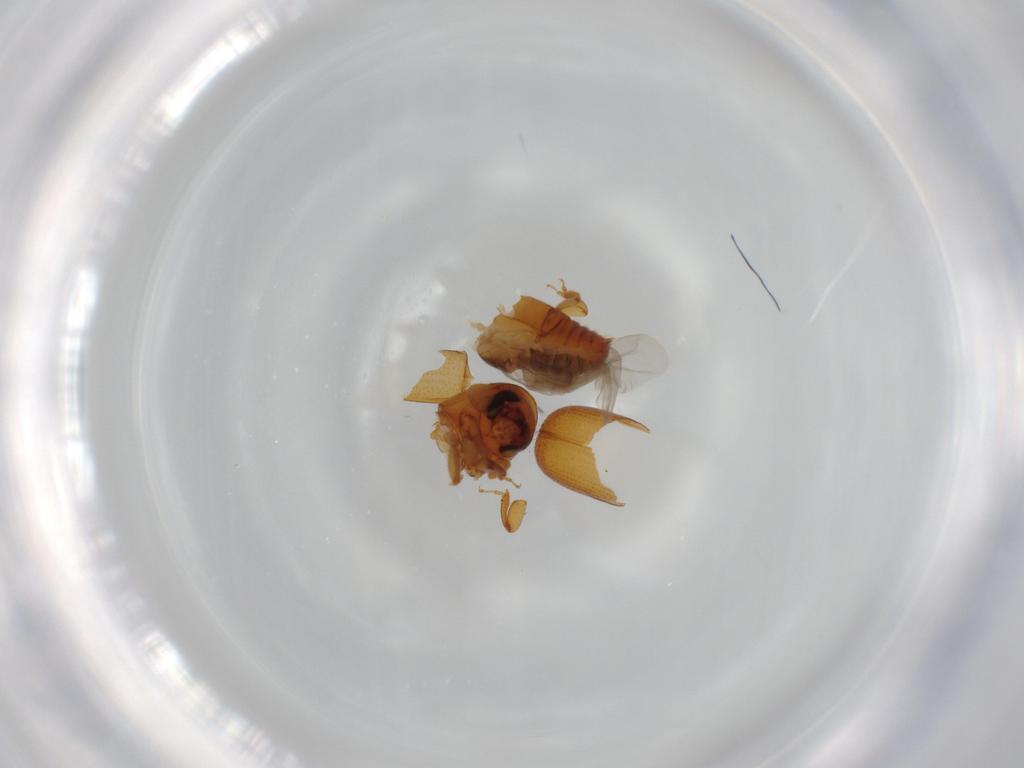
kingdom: Animalia
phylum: Arthropoda
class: Insecta
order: Coleoptera
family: Curculionidae
